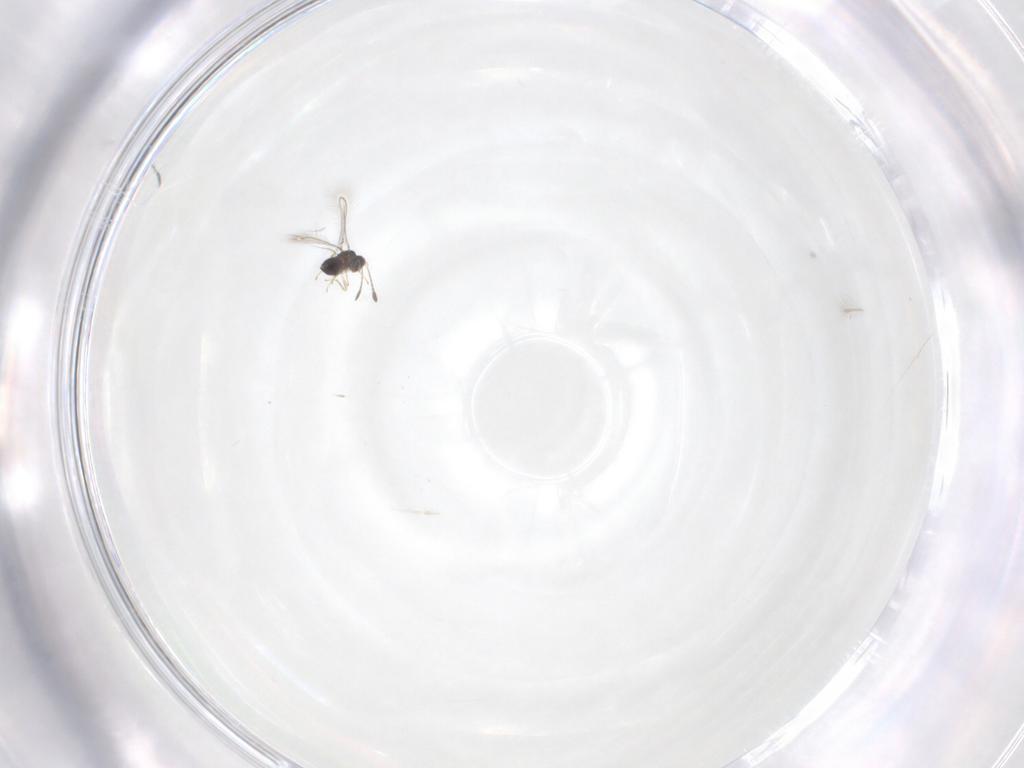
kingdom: Animalia
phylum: Arthropoda
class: Insecta
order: Hymenoptera
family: Mymaridae
